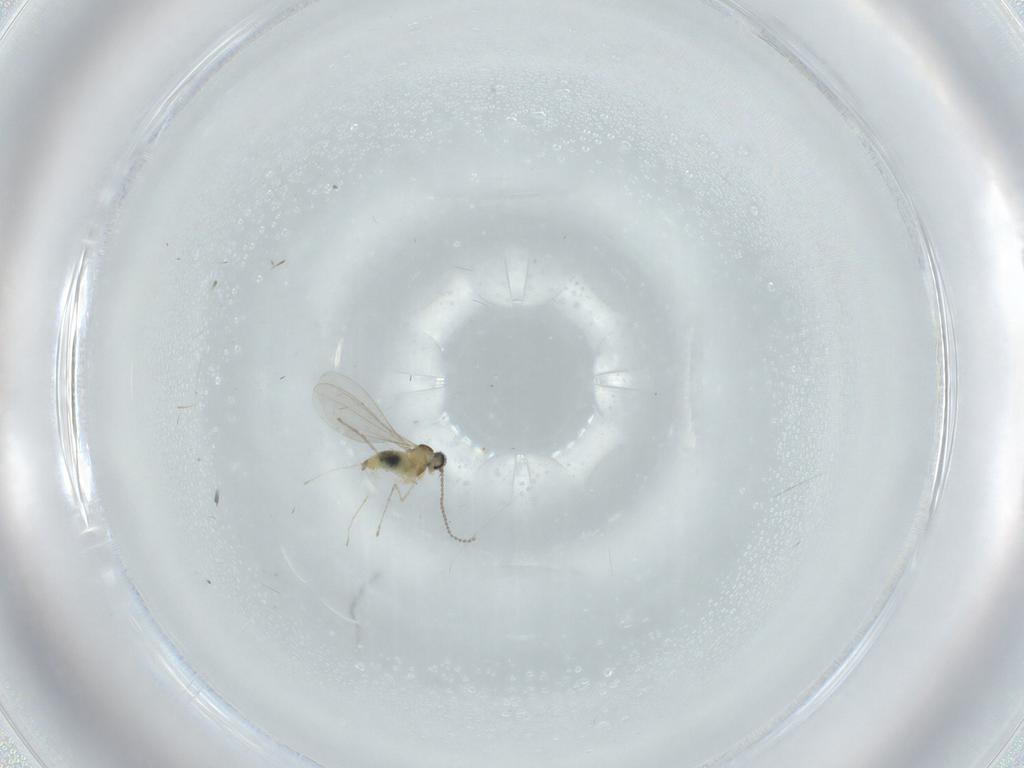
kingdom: Animalia
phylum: Arthropoda
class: Insecta
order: Diptera
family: Cecidomyiidae
